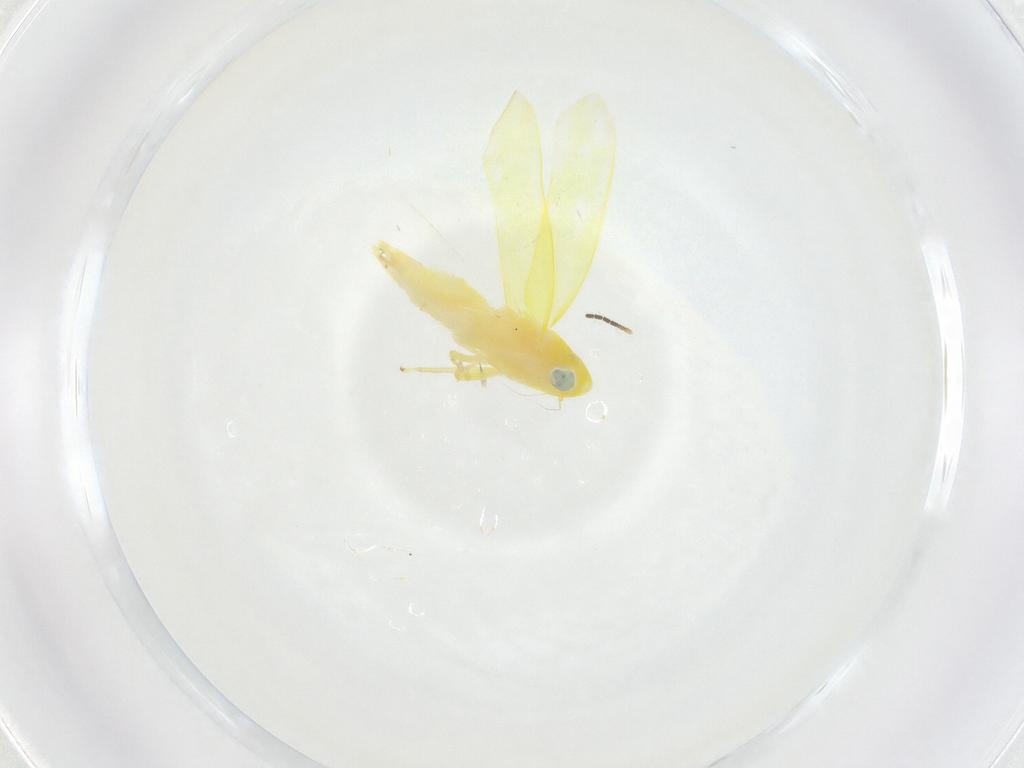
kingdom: Animalia
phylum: Arthropoda
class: Insecta
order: Hemiptera
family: Cicadellidae
